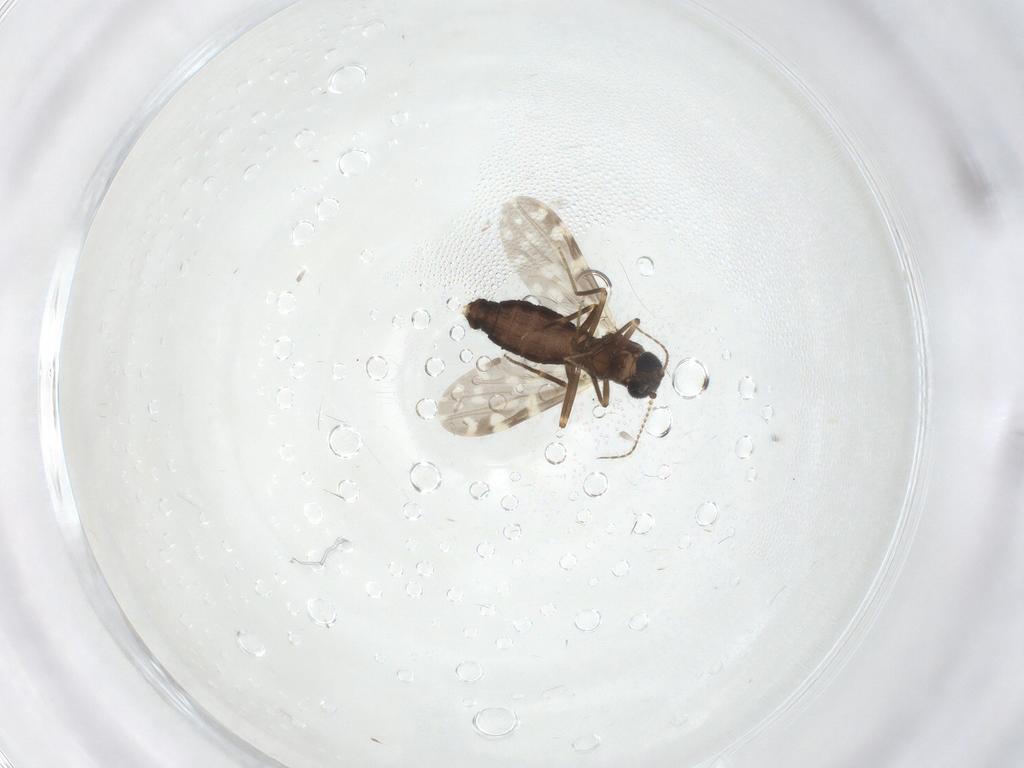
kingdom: Animalia
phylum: Arthropoda
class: Insecta
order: Diptera
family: Ceratopogonidae
